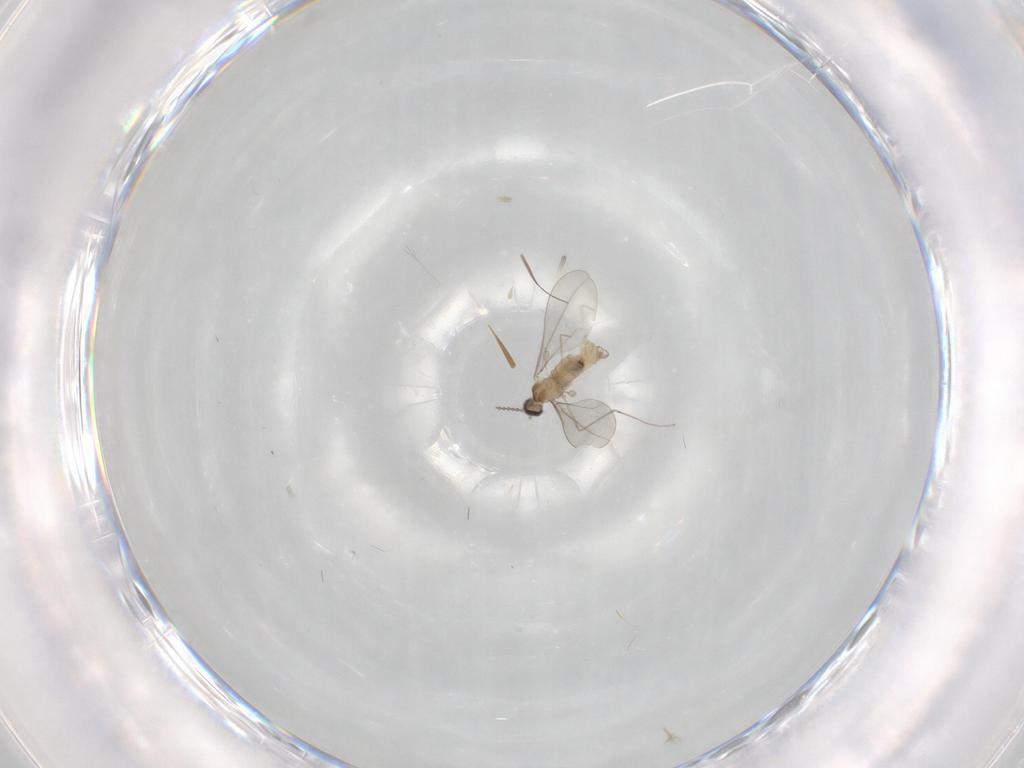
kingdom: Animalia
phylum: Arthropoda
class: Insecta
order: Diptera
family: Cecidomyiidae
